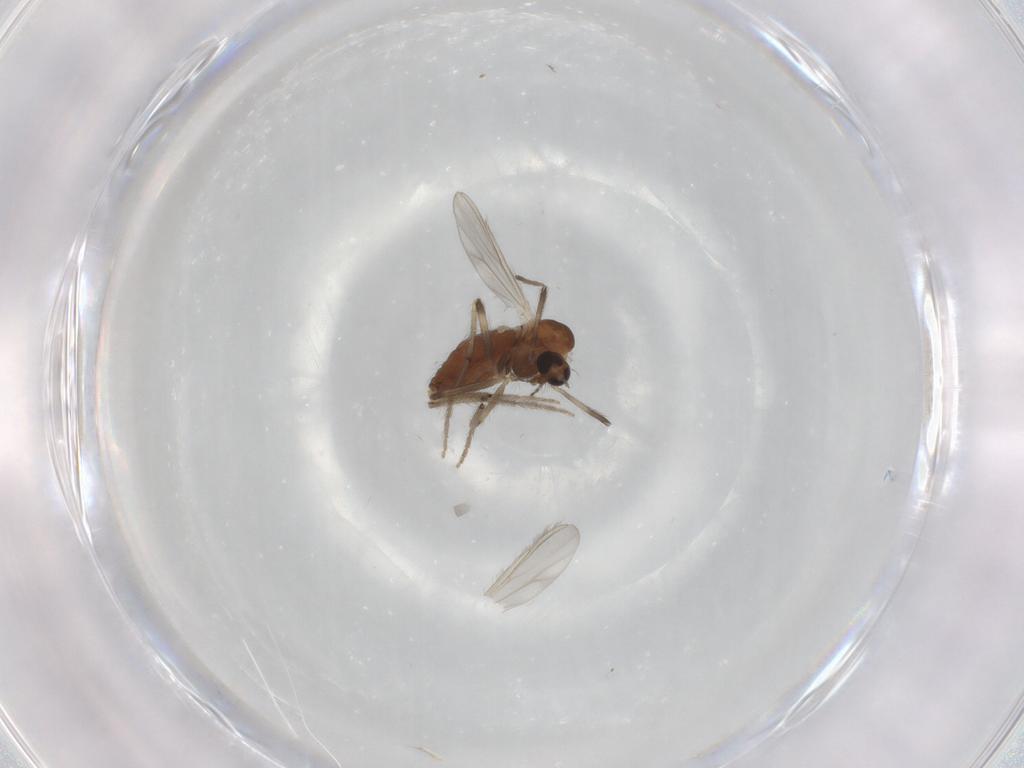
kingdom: Animalia
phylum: Arthropoda
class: Insecta
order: Diptera
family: Chironomidae
